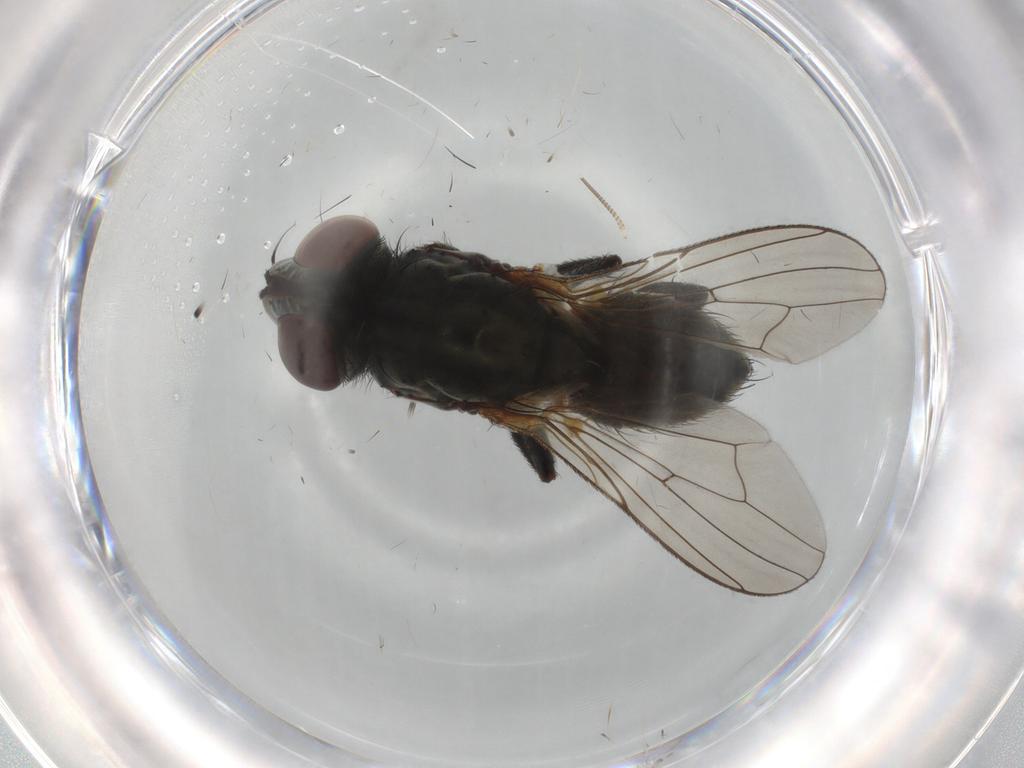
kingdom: Animalia
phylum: Arthropoda
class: Insecta
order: Diptera
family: Anthomyiidae
